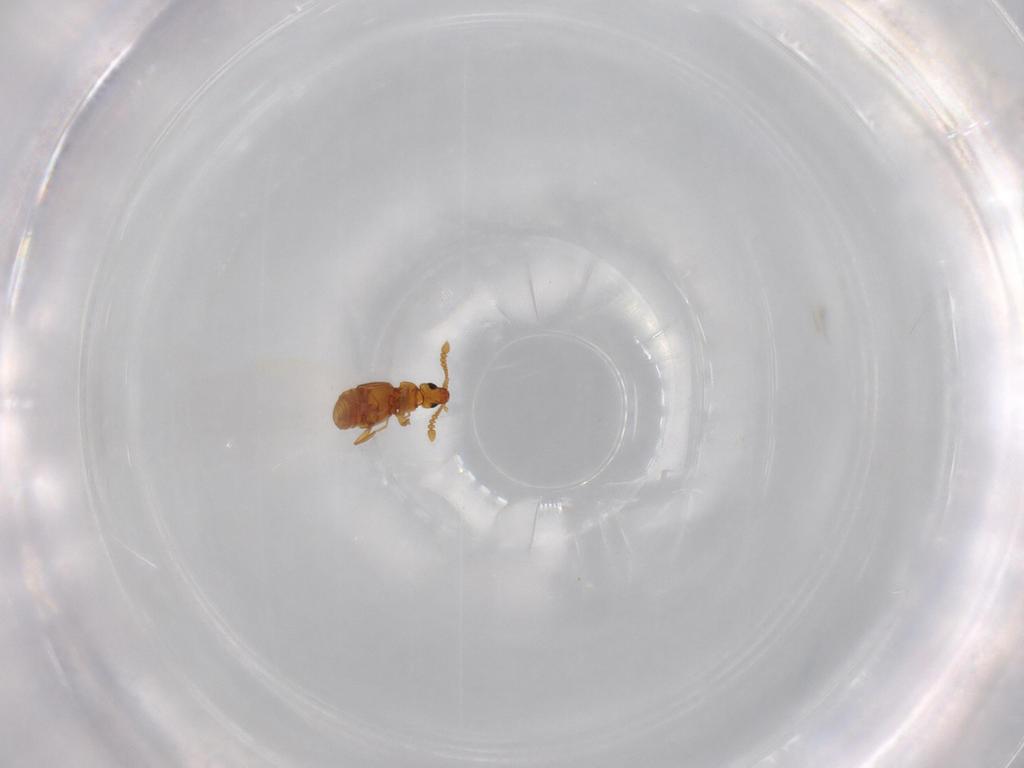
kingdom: Animalia
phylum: Arthropoda
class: Insecta
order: Coleoptera
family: Staphylinidae
